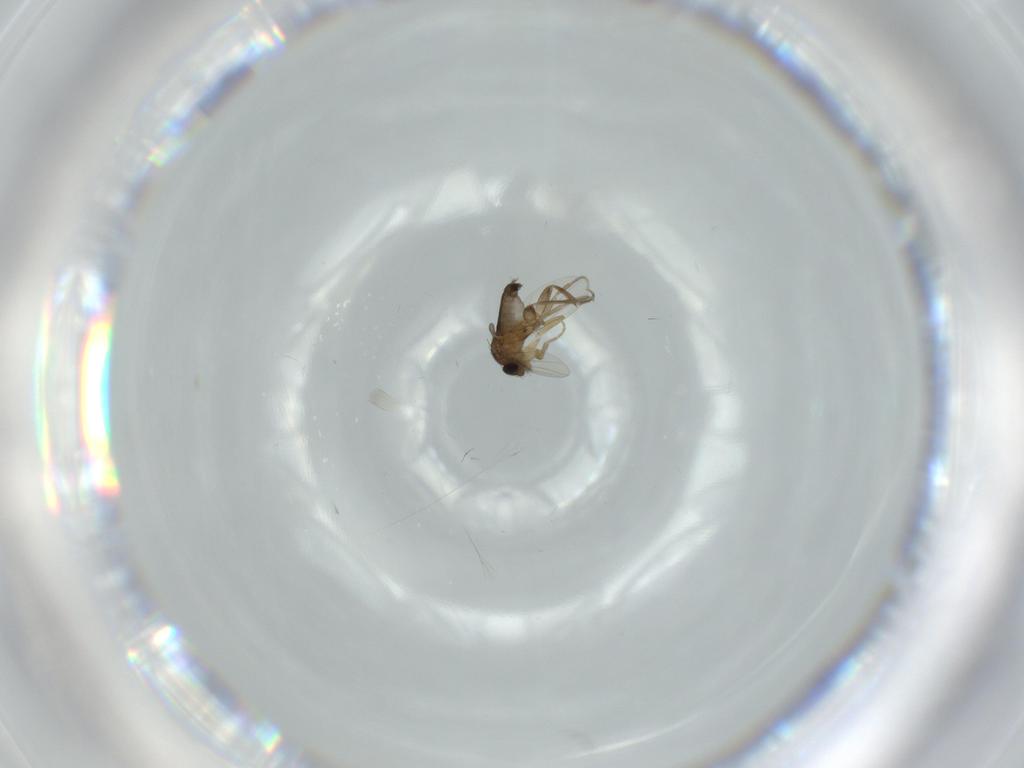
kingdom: Animalia
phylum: Arthropoda
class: Insecta
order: Diptera
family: Phoridae
